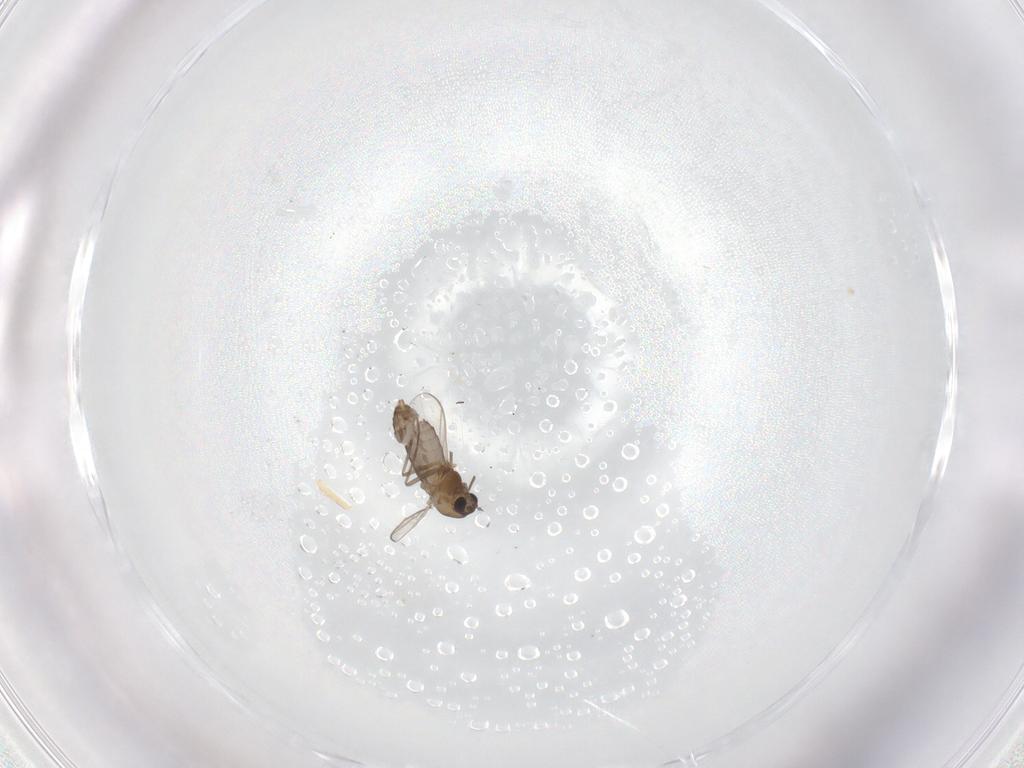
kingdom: Animalia
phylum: Arthropoda
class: Insecta
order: Diptera
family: Chironomidae
